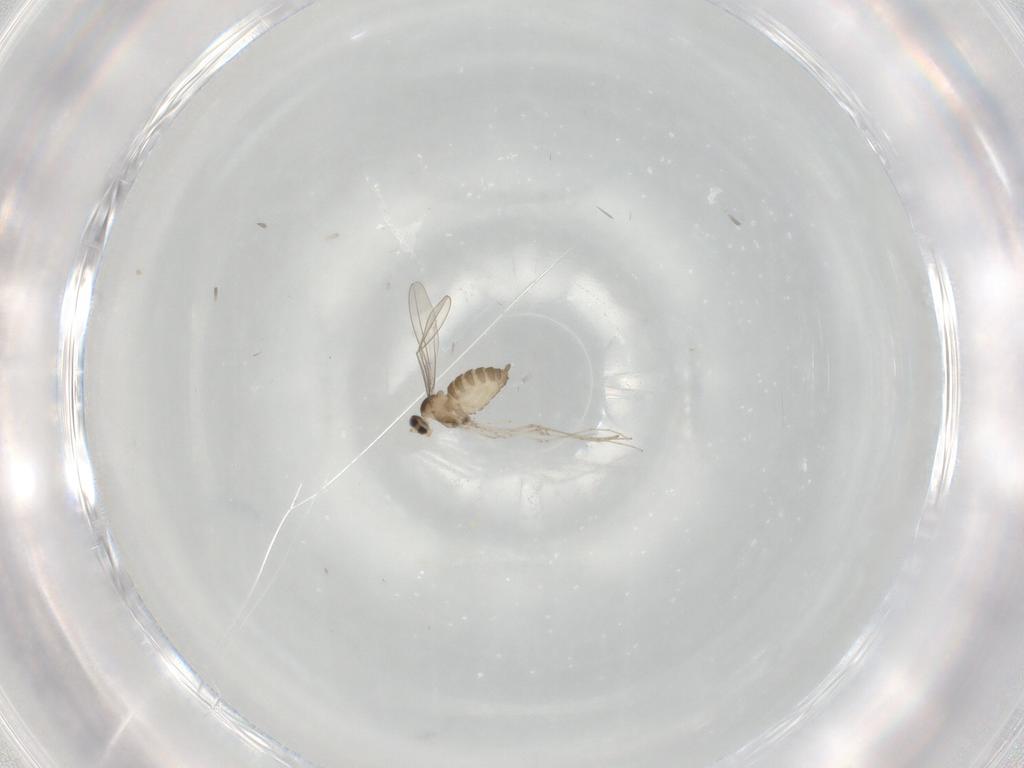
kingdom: Animalia
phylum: Arthropoda
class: Insecta
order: Diptera
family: Cecidomyiidae
